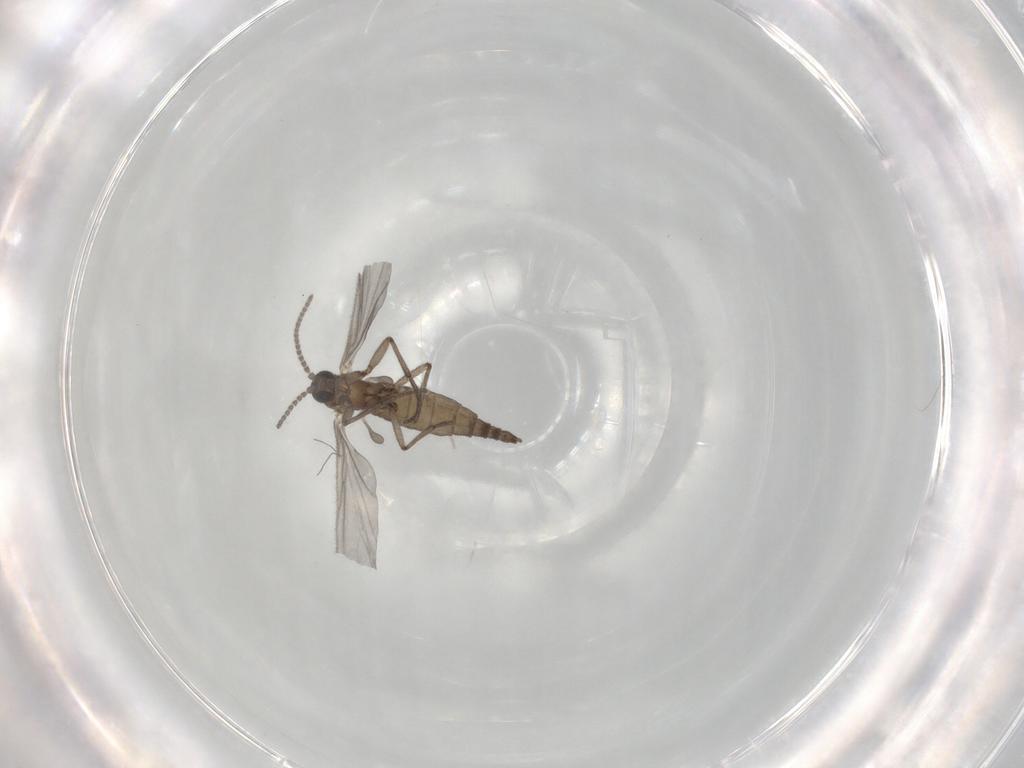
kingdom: Animalia
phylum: Arthropoda
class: Insecta
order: Diptera
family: Sciaridae
